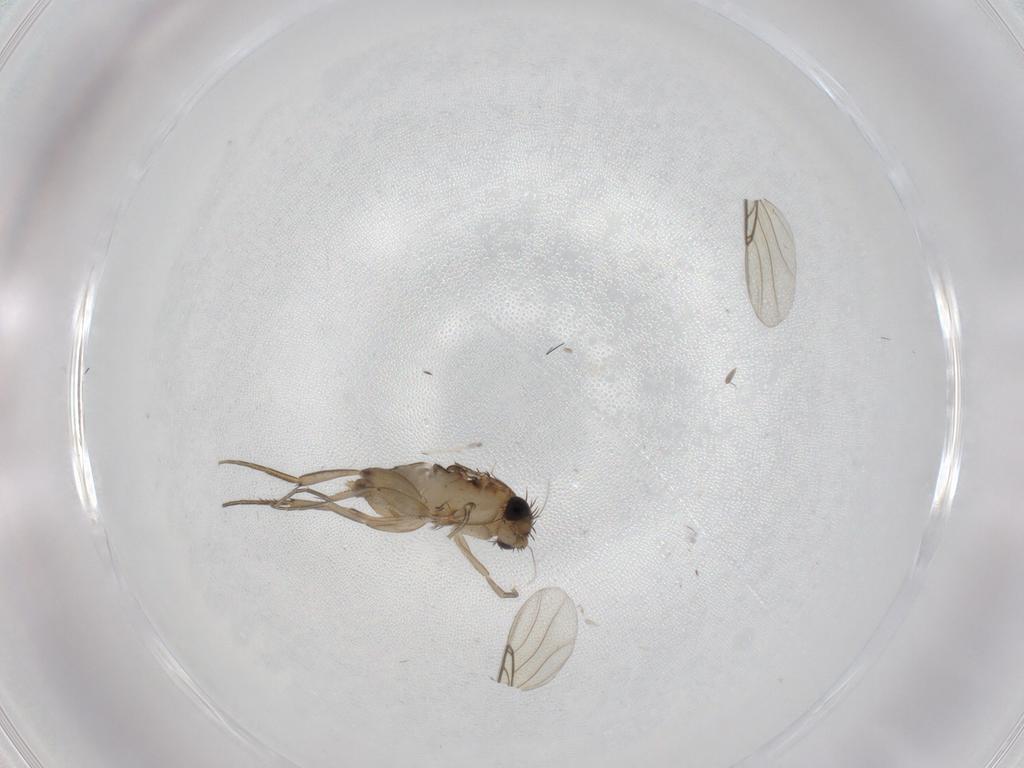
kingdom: Animalia
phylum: Arthropoda
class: Insecta
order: Diptera
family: Phoridae
